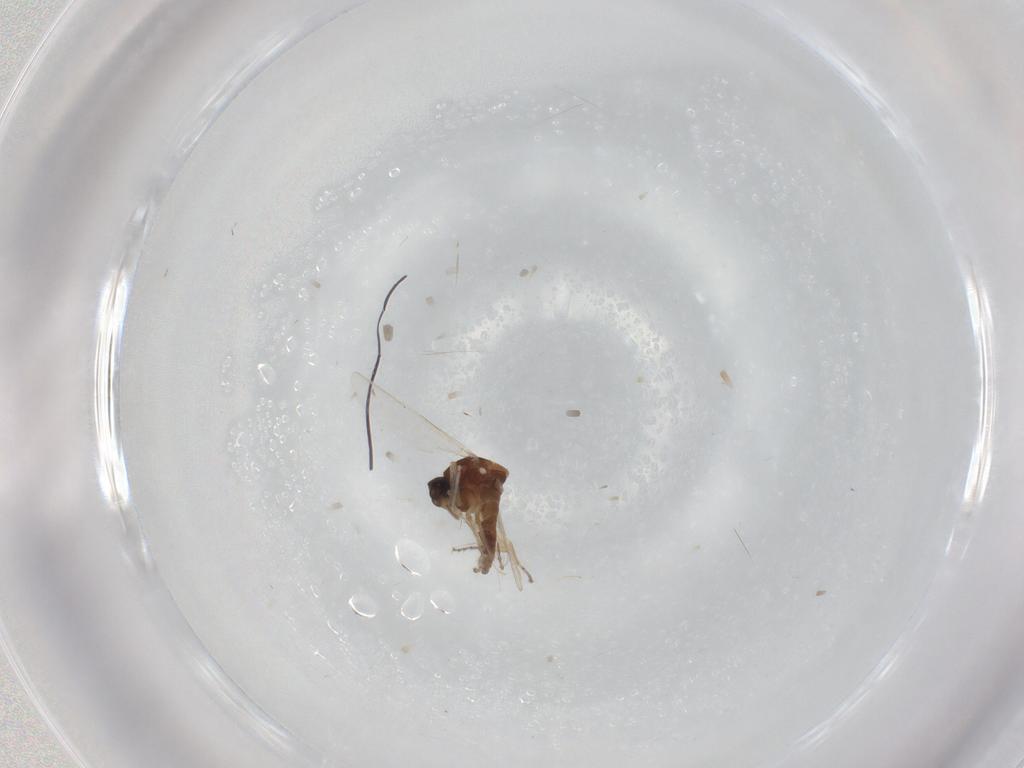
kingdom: Animalia
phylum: Arthropoda
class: Insecta
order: Diptera
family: Ceratopogonidae
